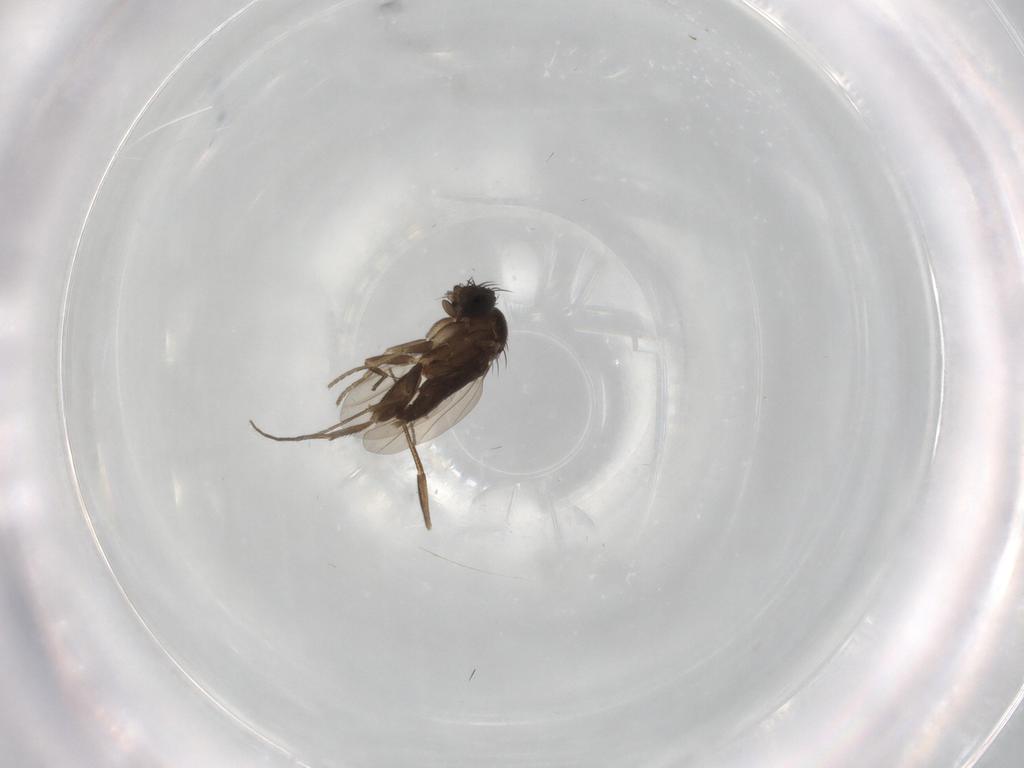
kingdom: Animalia
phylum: Arthropoda
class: Insecta
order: Diptera
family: Phoridae
